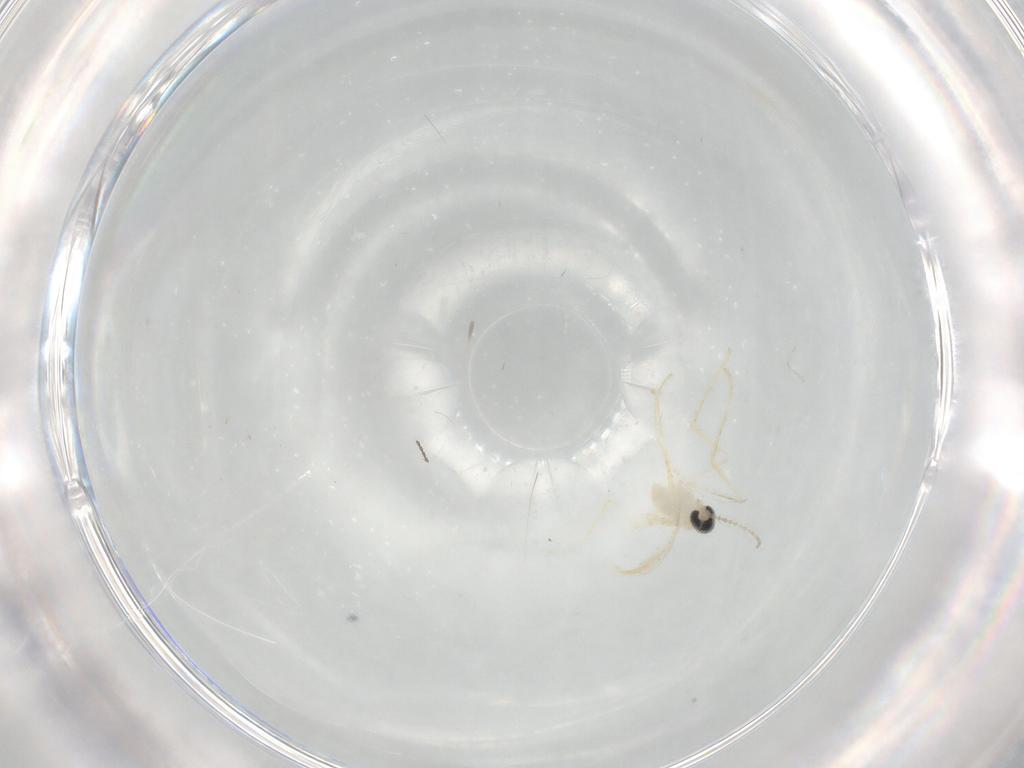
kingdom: Animalia
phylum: Arthropoda
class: Insecta
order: Diptera
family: Cecidomyiidae
